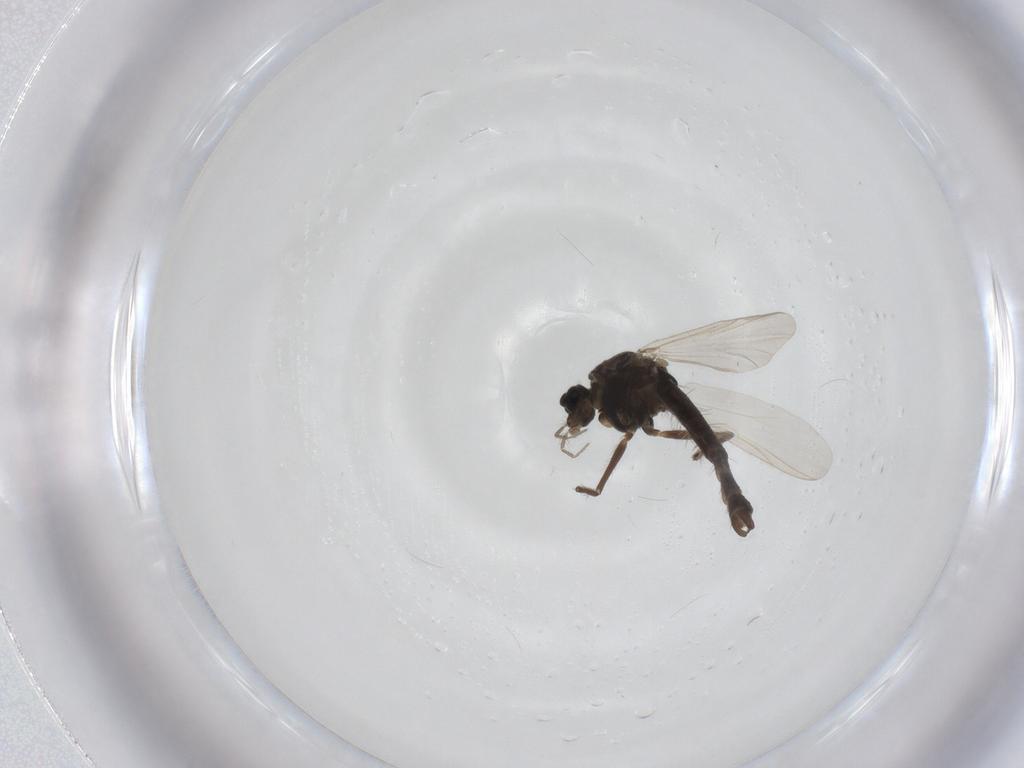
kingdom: Animalia
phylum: Arthropoda
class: Insecta
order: Diptera
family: Chironomidae
